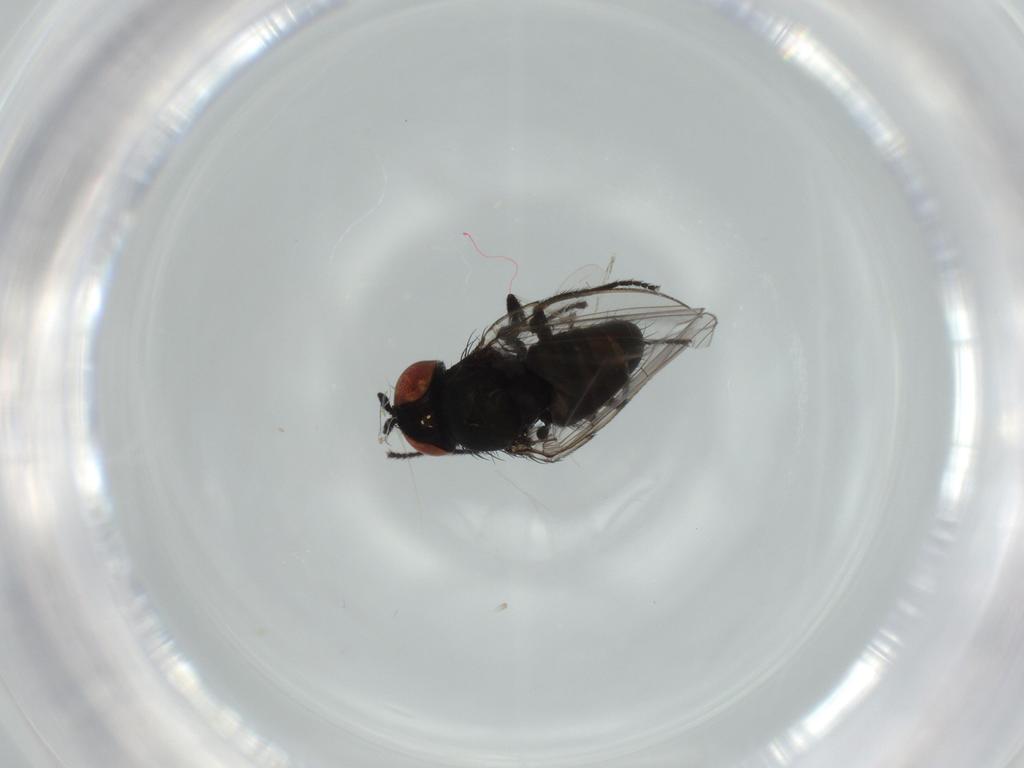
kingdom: Animalia
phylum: Arthropoda
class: Insecta
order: Diptera
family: Phoridae
